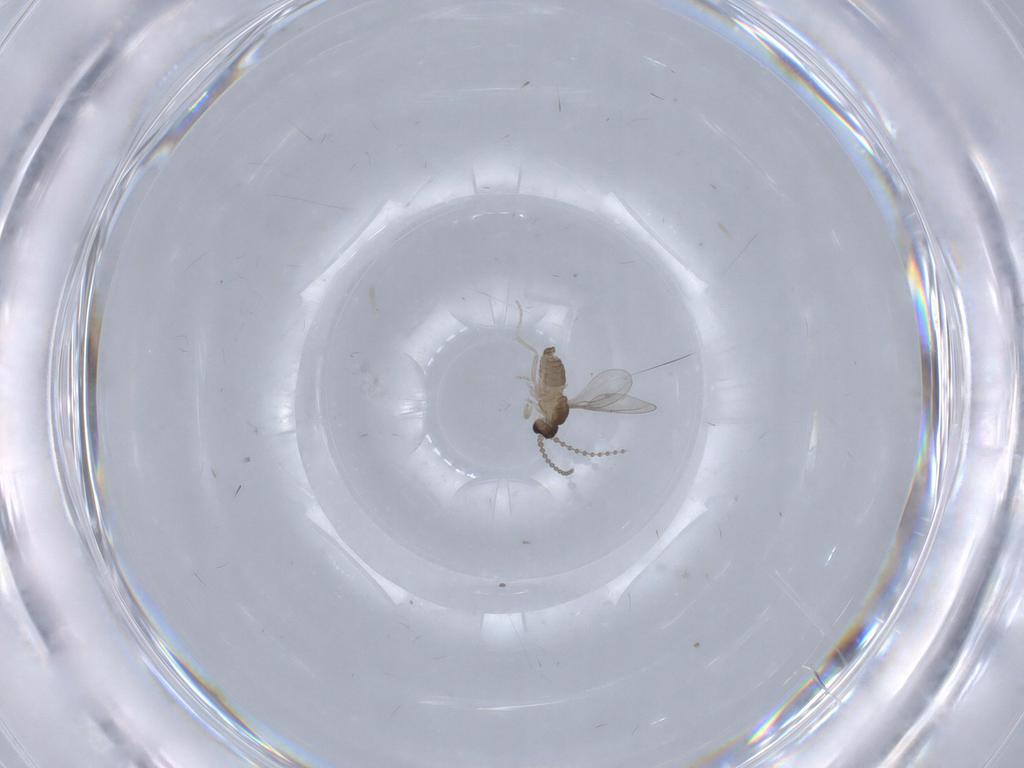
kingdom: Animalia
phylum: Arthropoda
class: Insecta
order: Diptera
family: Cecidomyiidae
